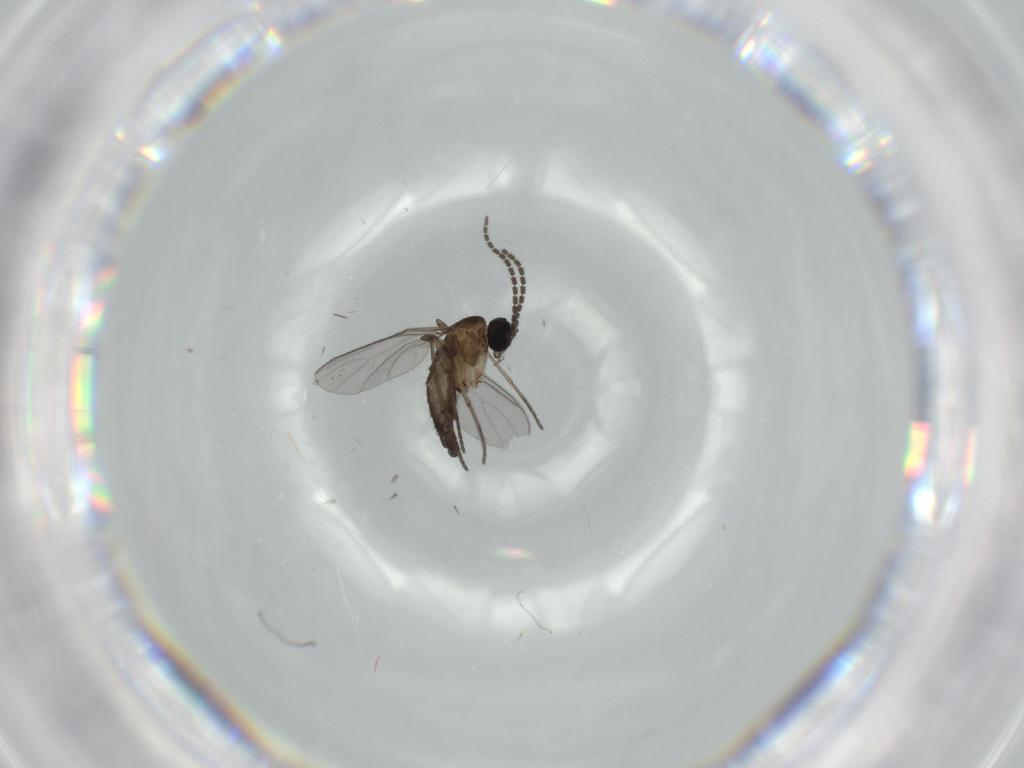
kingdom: Animalia
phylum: Arthropoda
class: Insecta
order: Diptera
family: Sciaridae
